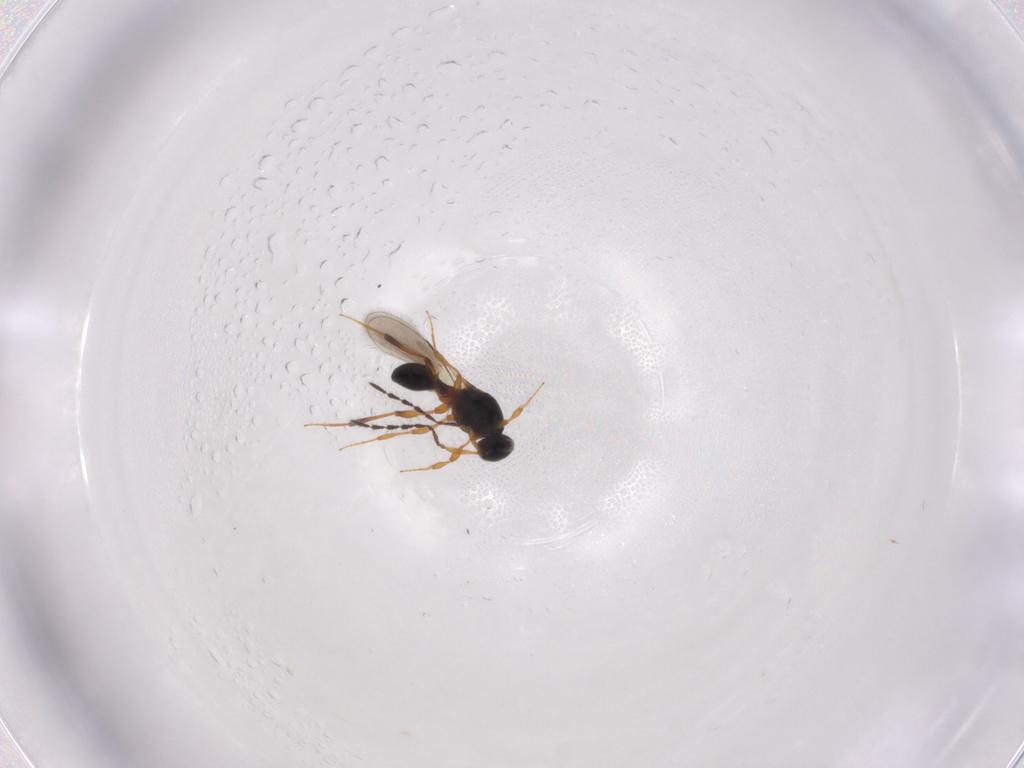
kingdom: Animalia
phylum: Arthropoda
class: Insecta
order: Hymenoptera
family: Platygastridae
